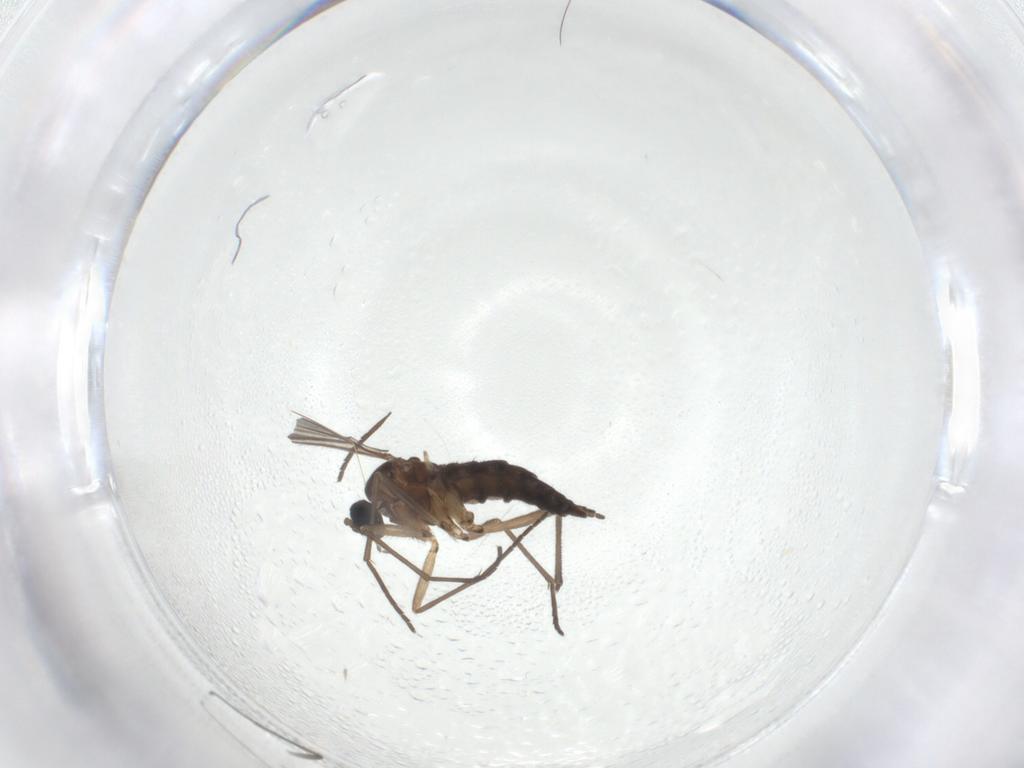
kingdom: Animalia
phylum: Arthropoda
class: Insecta
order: Diptera
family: Sciaridae
